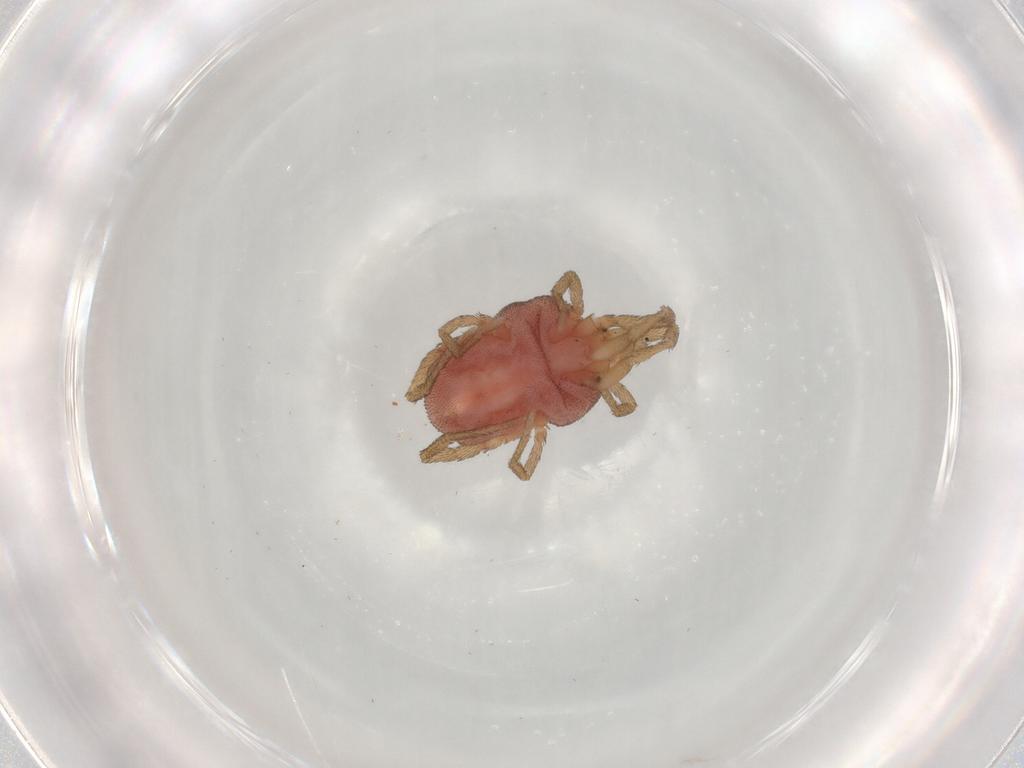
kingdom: Animalia
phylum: Arthropoda
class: Arachnida
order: Trombidiformes
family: Erythraeidae
